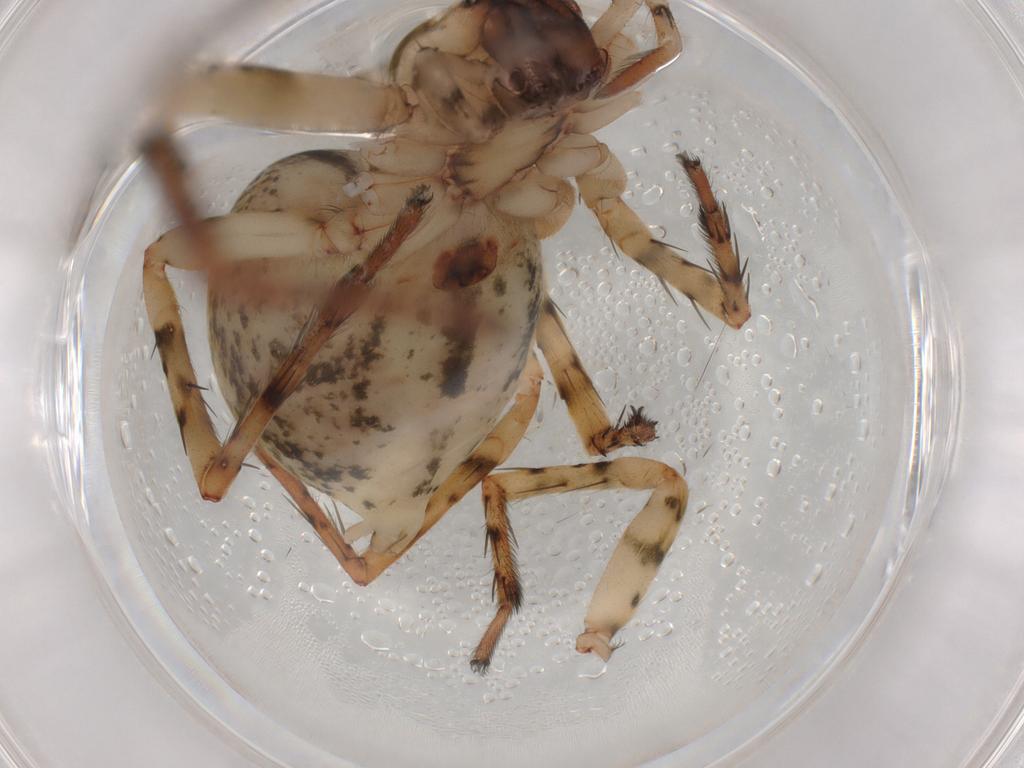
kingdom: Animalia
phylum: Arthropoda
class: Arachnida
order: Araneae
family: Anyphaenidae
